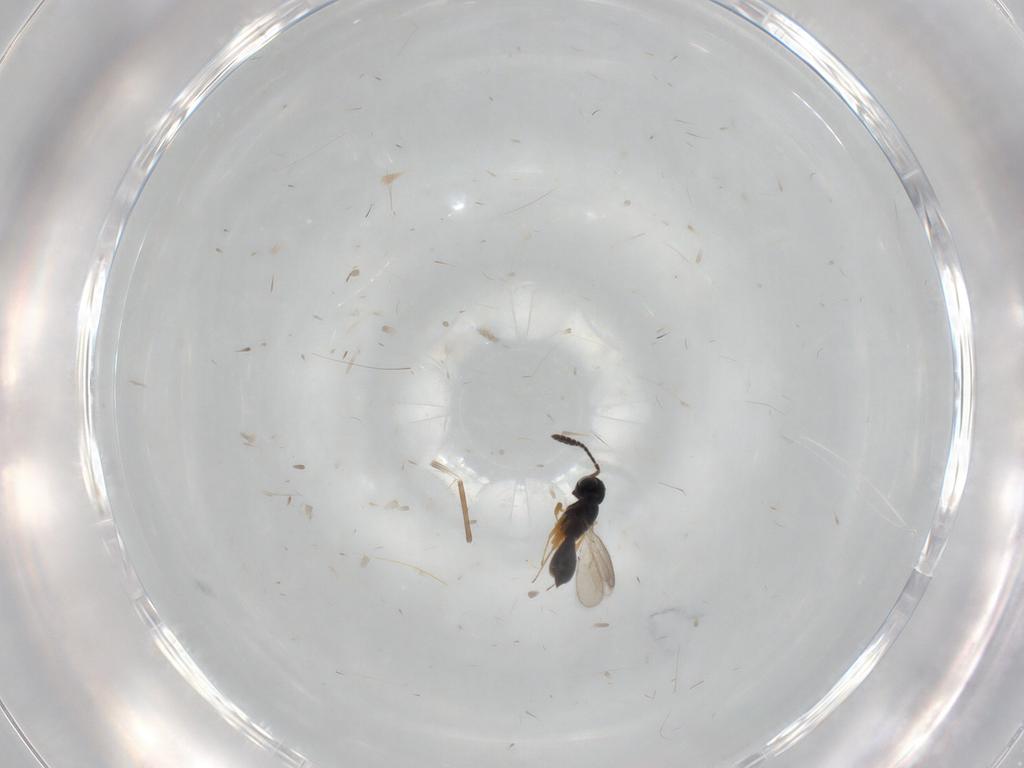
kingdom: Animalia
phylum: Arthropoda
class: Insecta
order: Hymenoptera
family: Scelionidae
